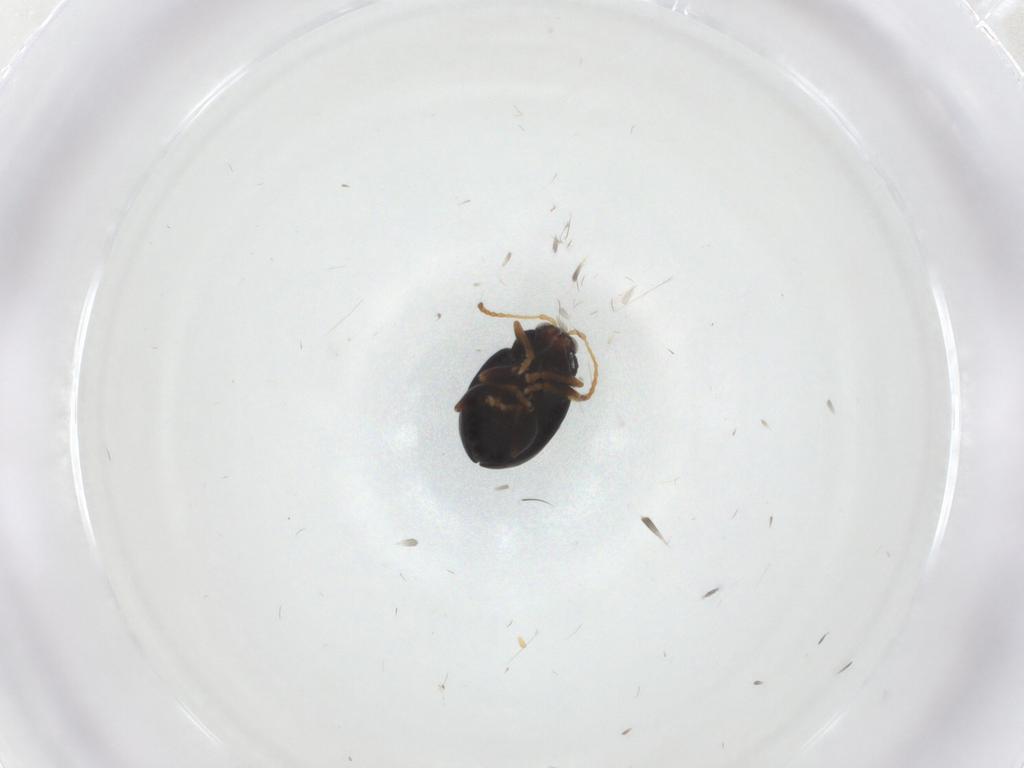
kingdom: Animalia
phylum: Arthropoda
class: Insecta
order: Coleoptera
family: Chrysomelidae
